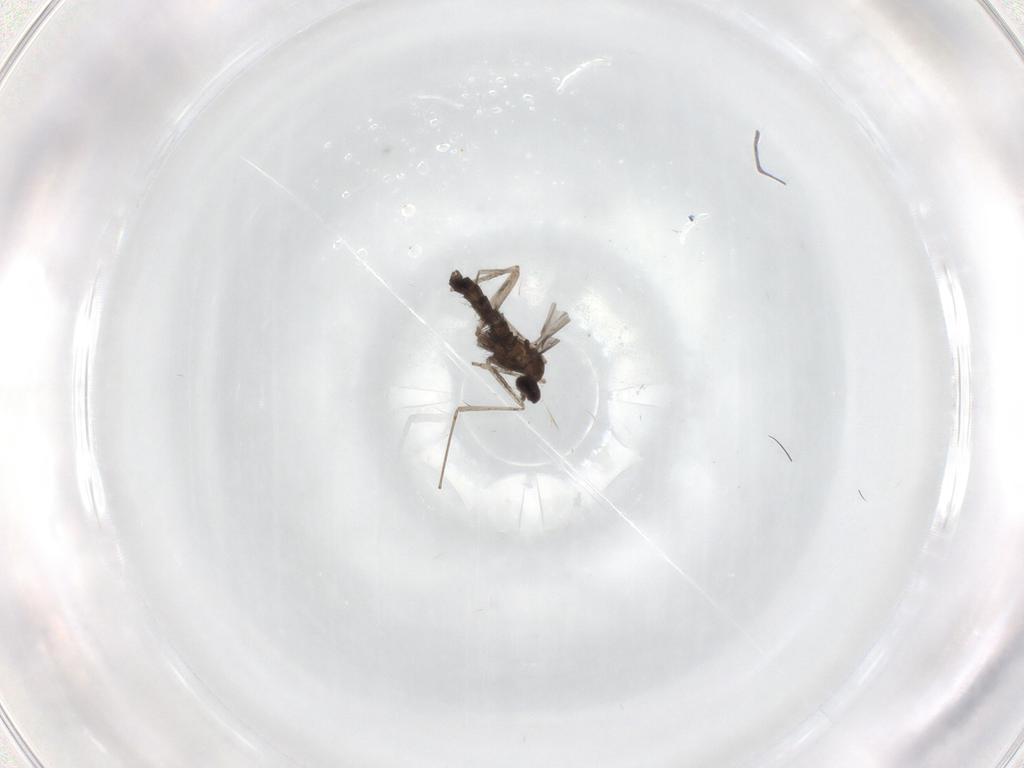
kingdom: Animalia
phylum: Arthropoda
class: Insecta
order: Diptera
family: Cecidomyiidae
